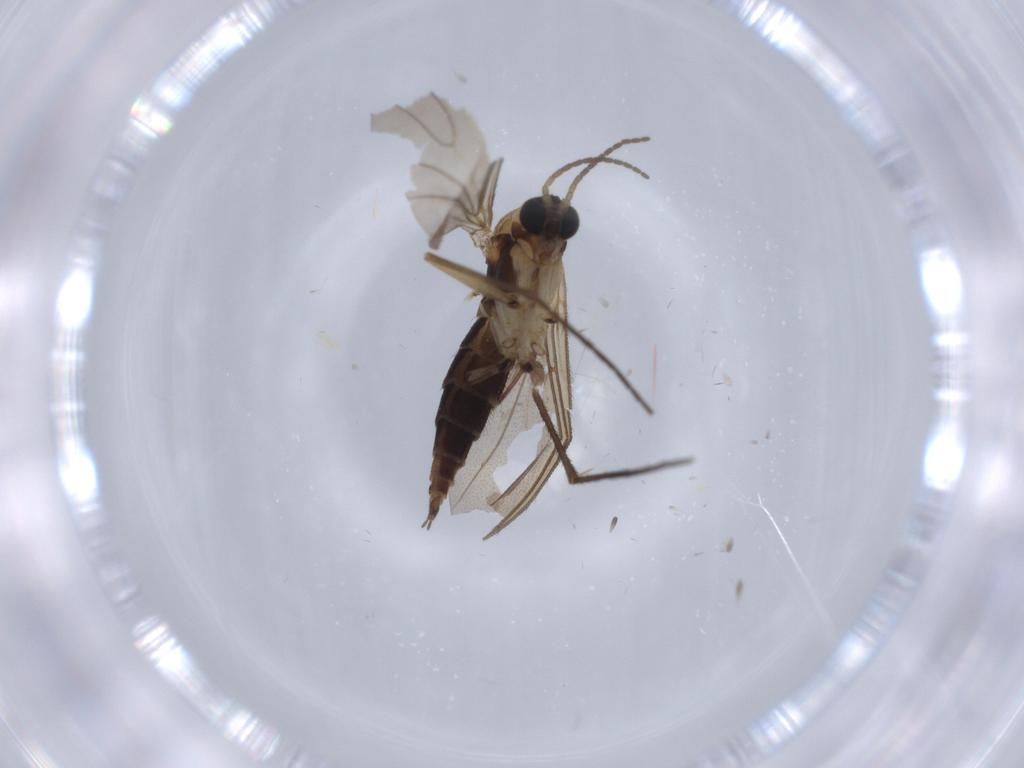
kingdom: Animalia
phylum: Arthropoda
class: Insecta
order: Diptera
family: Sciaridae
